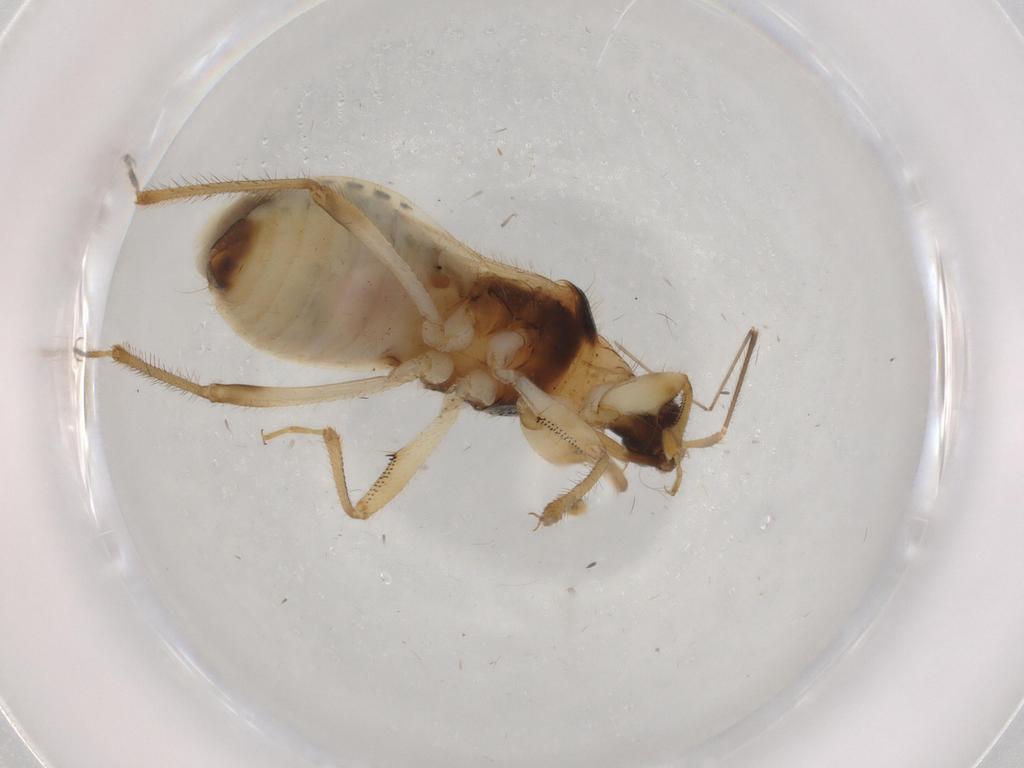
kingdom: Animalia
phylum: Arthropoda
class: Insecta
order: Hemiptera
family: Nabidae
